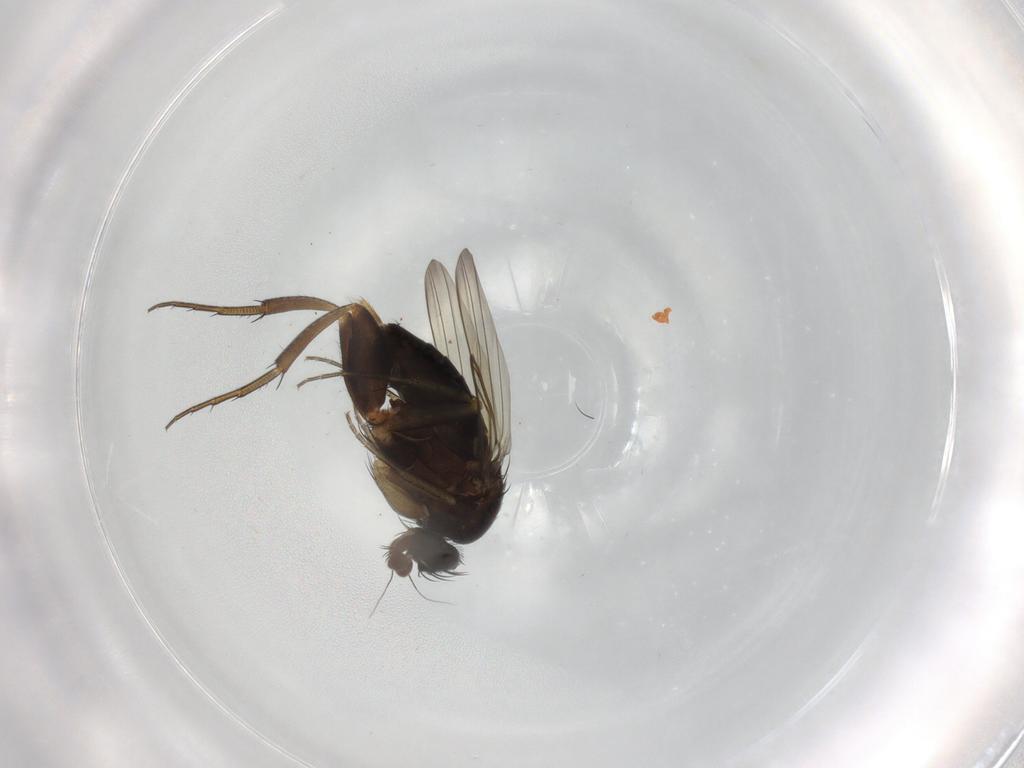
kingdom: Animalia
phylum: Arthropoda
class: Insecta
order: Diptera
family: Phoridae
